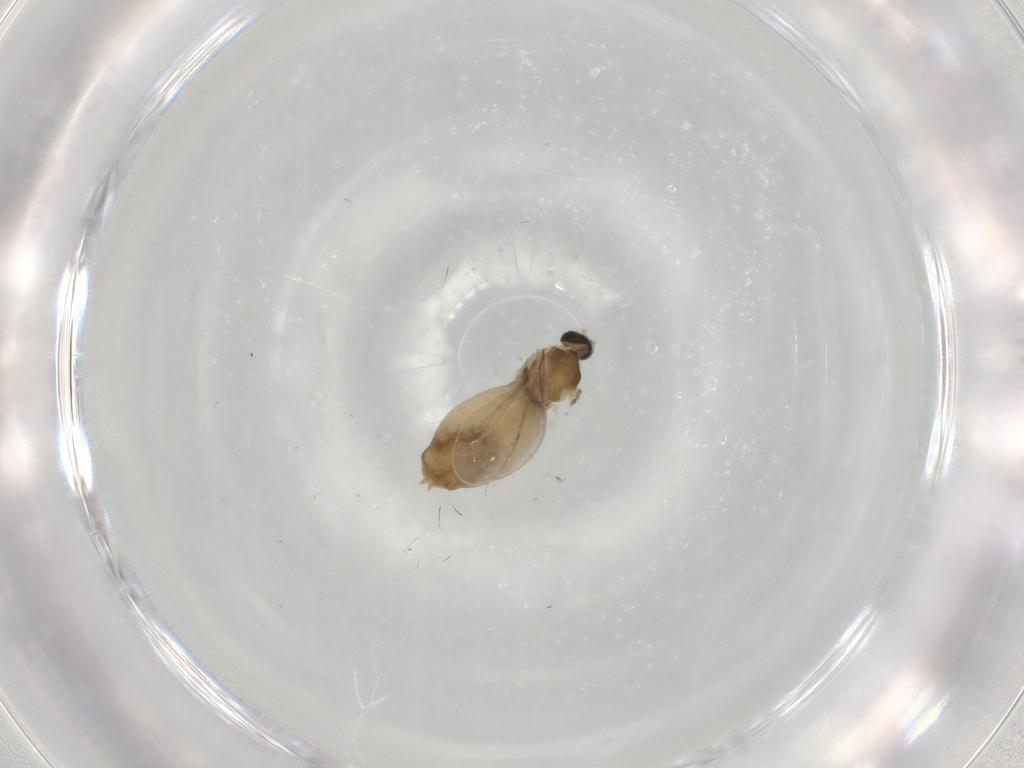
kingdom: Animalia
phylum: Arthropoda
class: Insecta
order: Diptera
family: Cecidomyiidae
